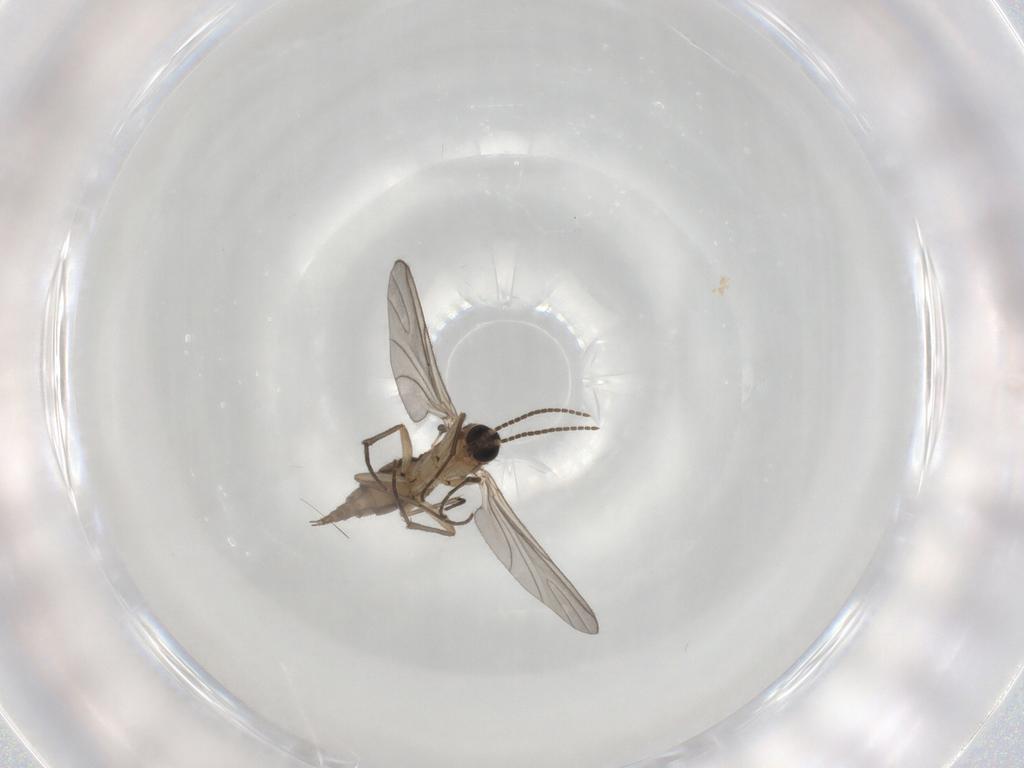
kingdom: Animalia
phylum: Arthropoda
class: Insecta
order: Diptera
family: Sciaridae
